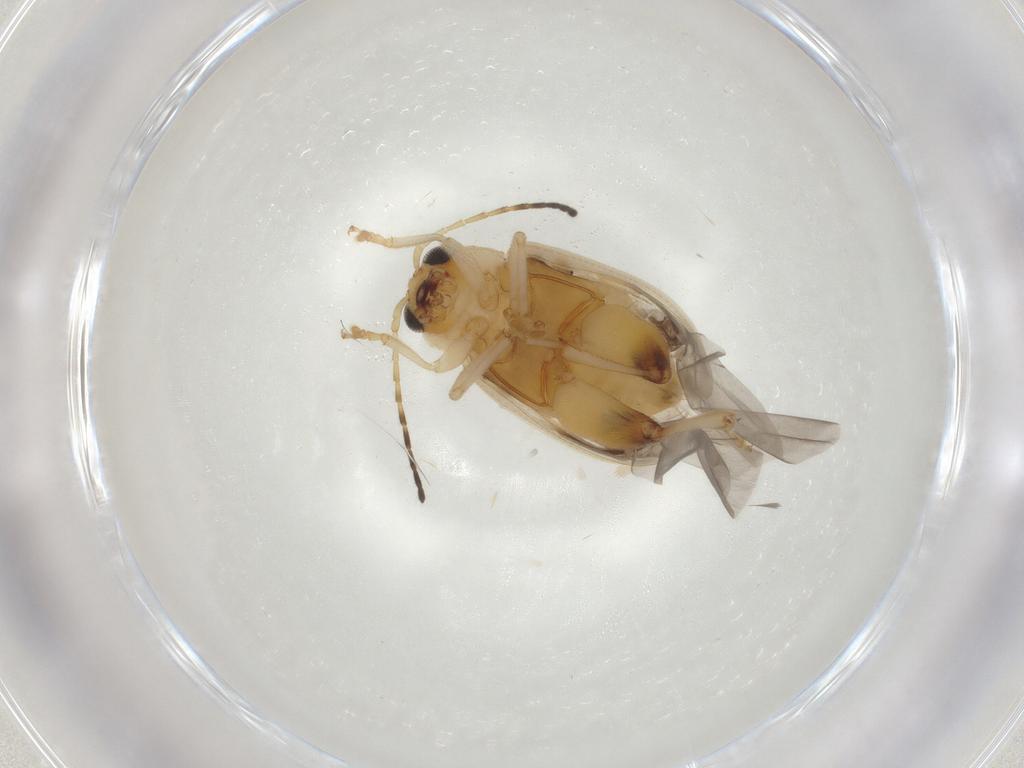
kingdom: Animalia
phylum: Arthropoda
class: Insecta
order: Coleoptera
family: Chrysomelidae
